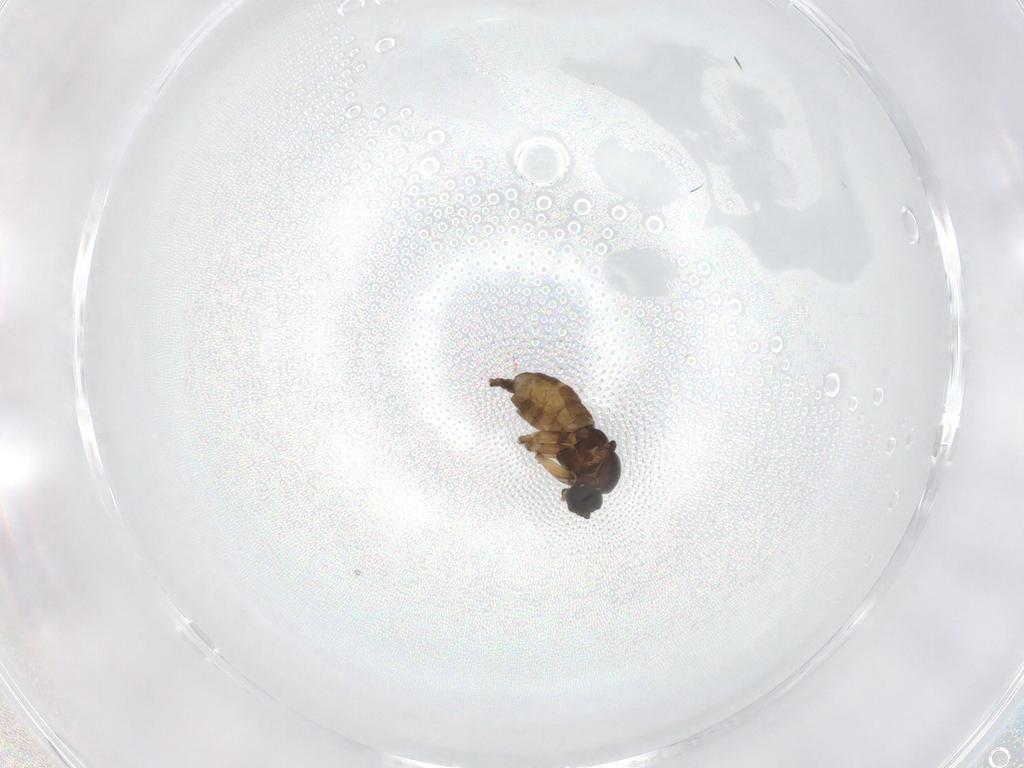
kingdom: Animalia
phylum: Arthropoda
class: Insecta
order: Diptera
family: Sciaridae
